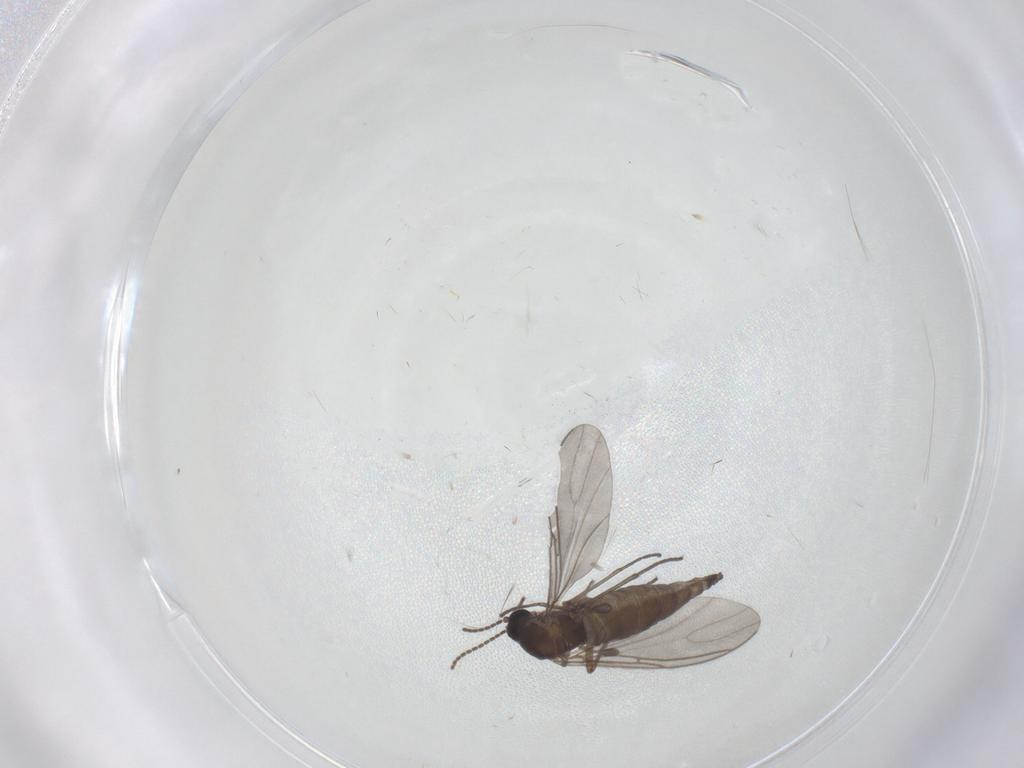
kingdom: Animalia
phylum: Arthropoda
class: Insecta
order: Diptera
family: Sciaridae
